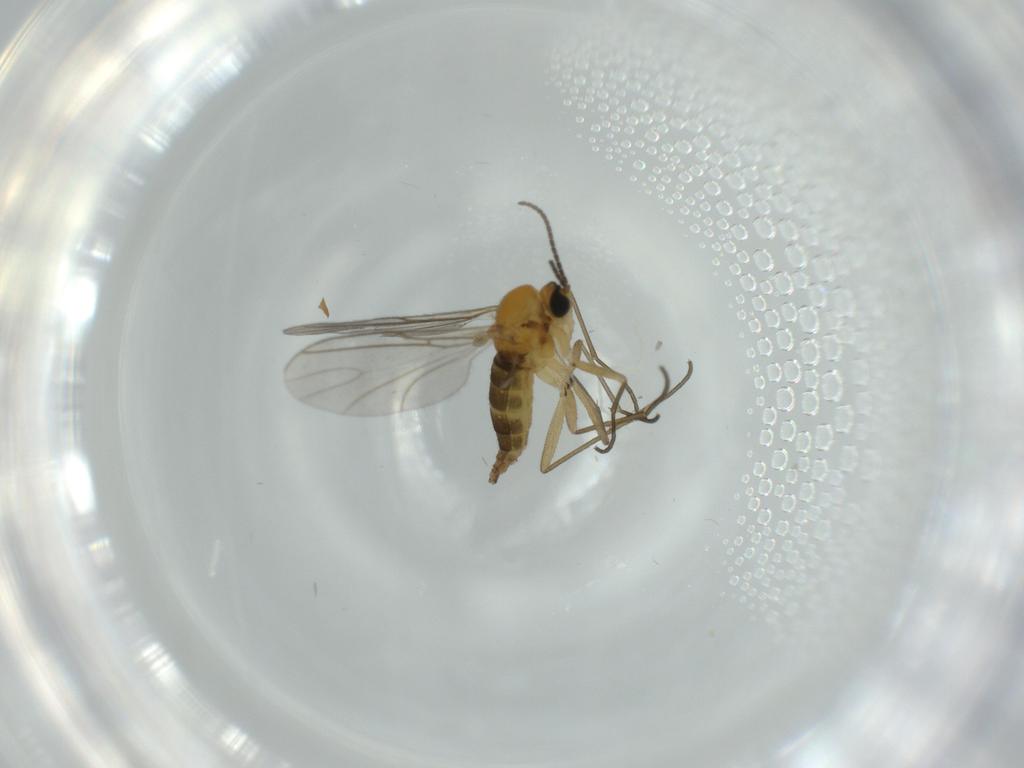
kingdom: Animalia
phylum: Arthropoda
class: Insecta
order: Diptera
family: Sciaridae
